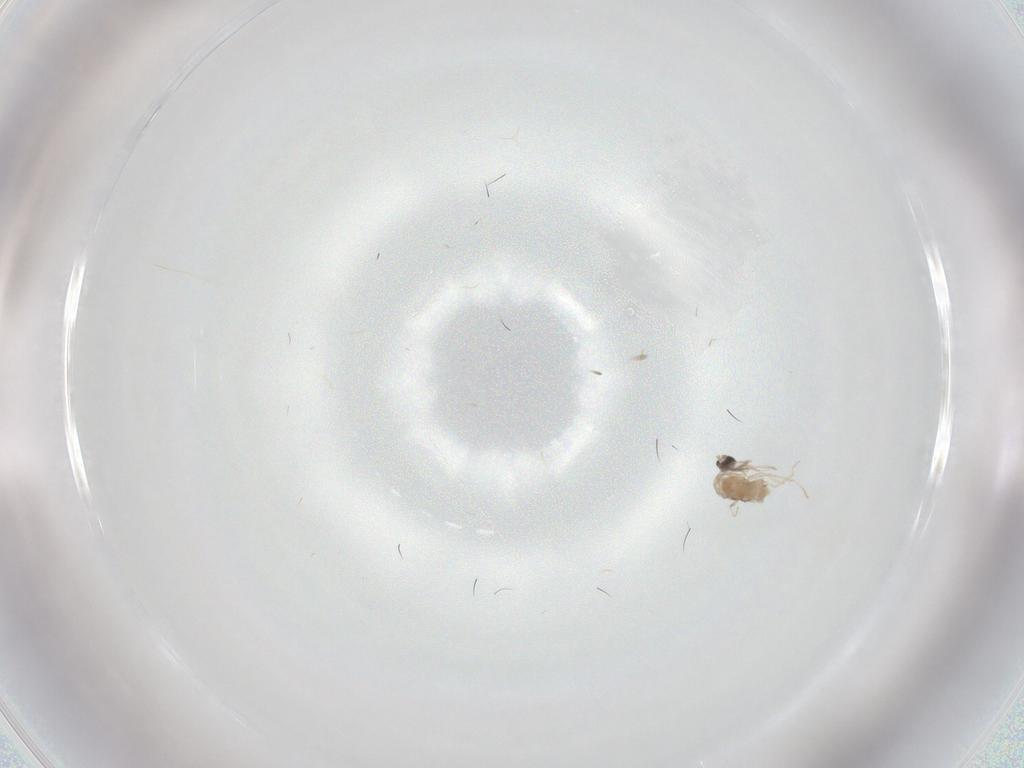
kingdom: Animalia
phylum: Arthropoda
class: Insecta
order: Diptera
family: Cecidomyiidae
